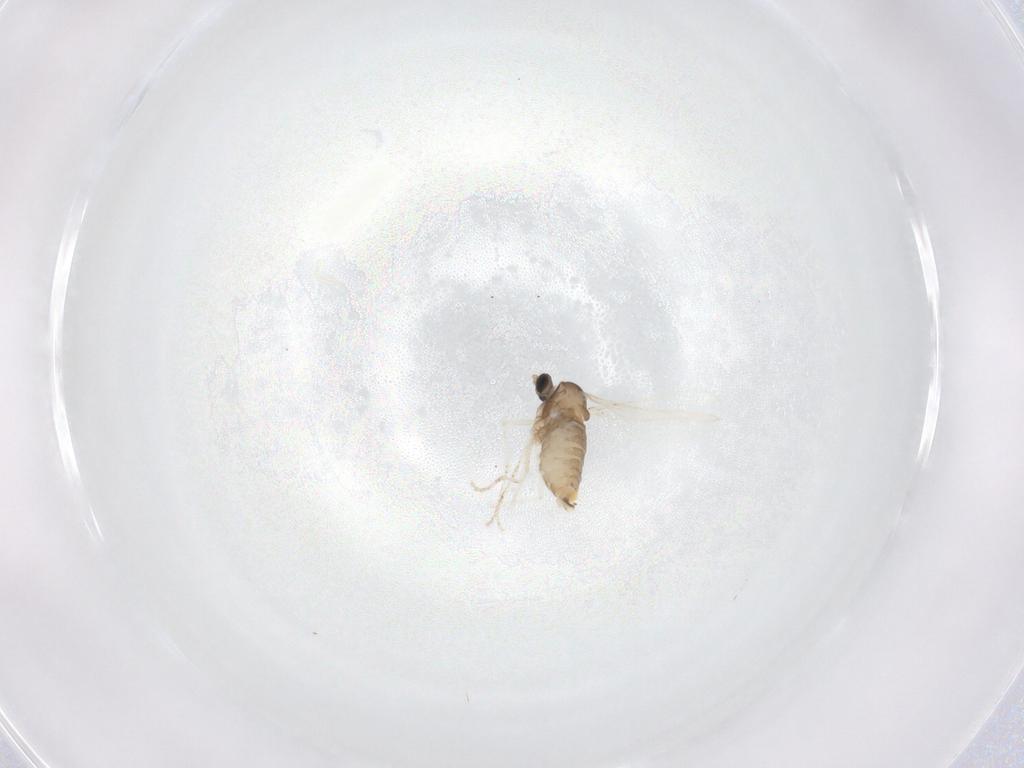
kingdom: Animalia
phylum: Arthropoda
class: Insecta
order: Diptera
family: Cecidomyiidae
